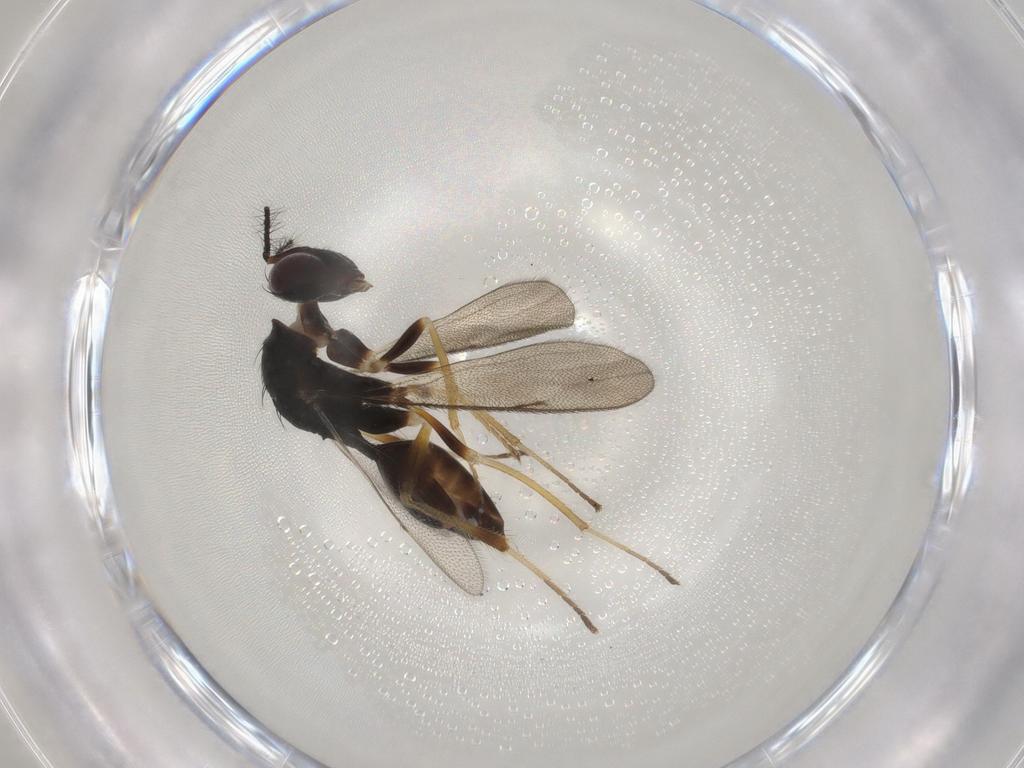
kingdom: Animalia
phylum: Arthropoda
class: Insecta
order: Hymenoptera
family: Diparidae
